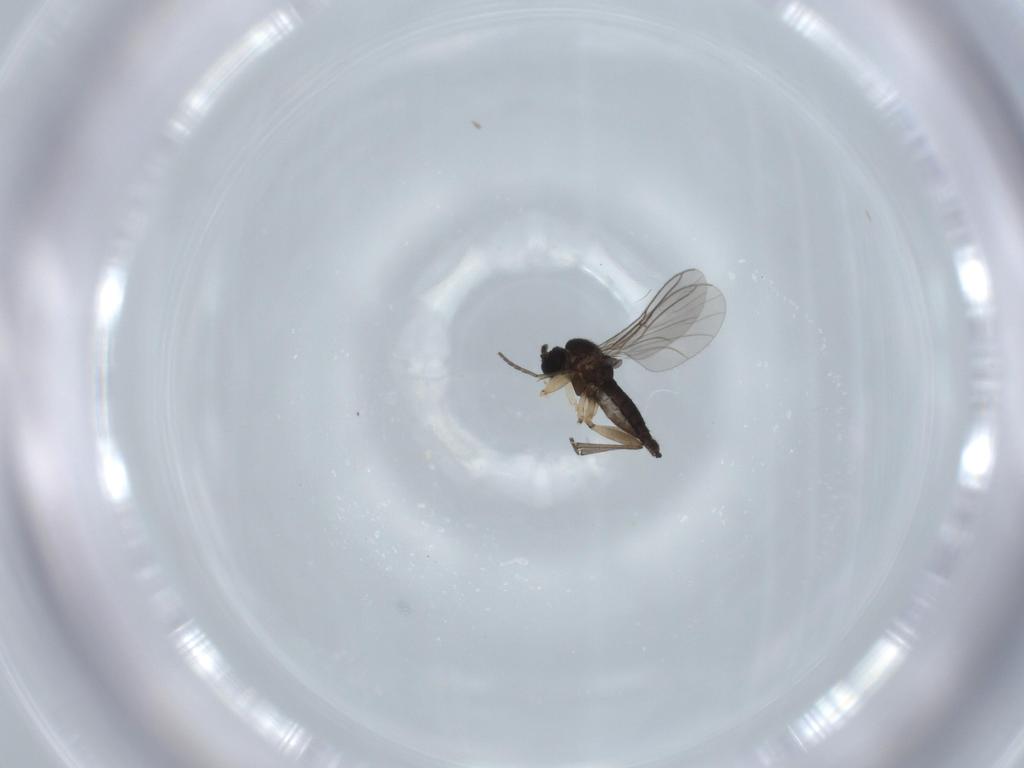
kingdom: Animalia
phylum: Arthropoda
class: Insecta
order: Diptera
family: Sciaridae
